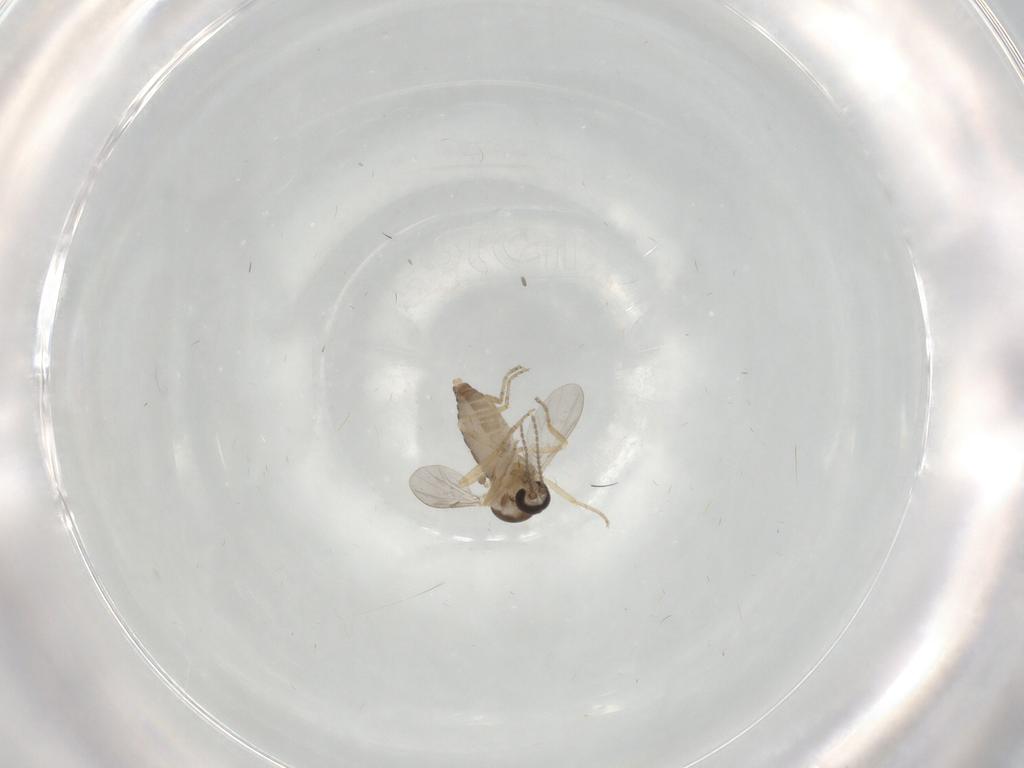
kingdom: Animalia
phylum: Arthropoda
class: Insecta
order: Diptera
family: Ceratopogonidae
